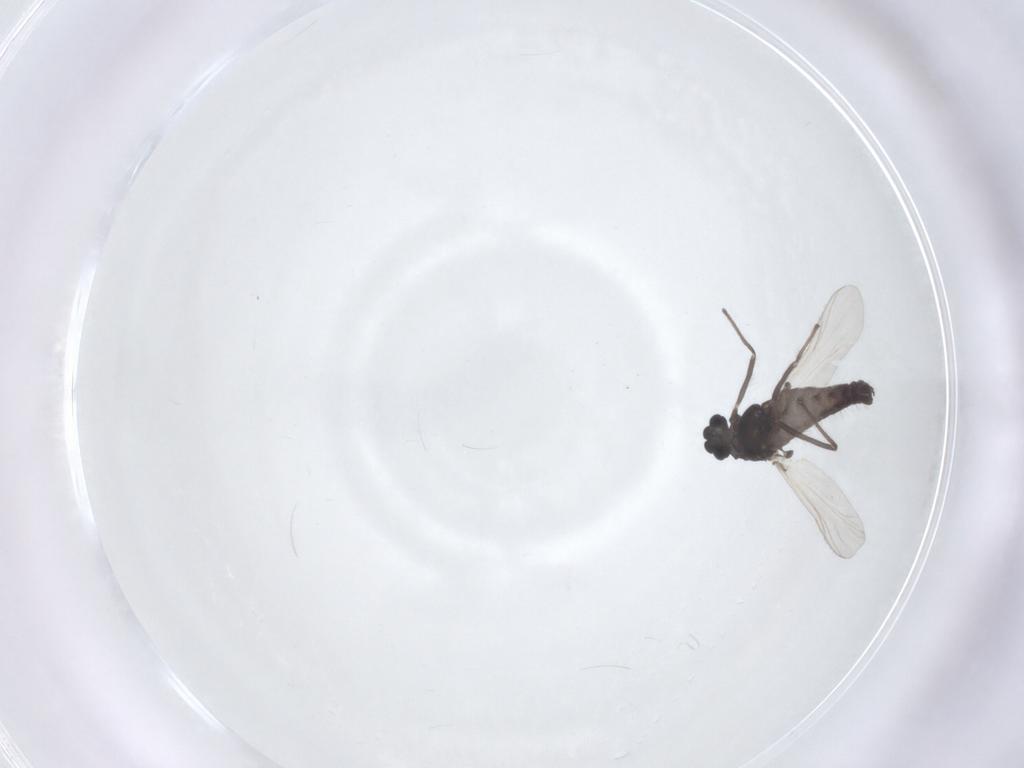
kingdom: Animalia
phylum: Arthropoda
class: Insecta
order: Diptera
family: Chironomidae
